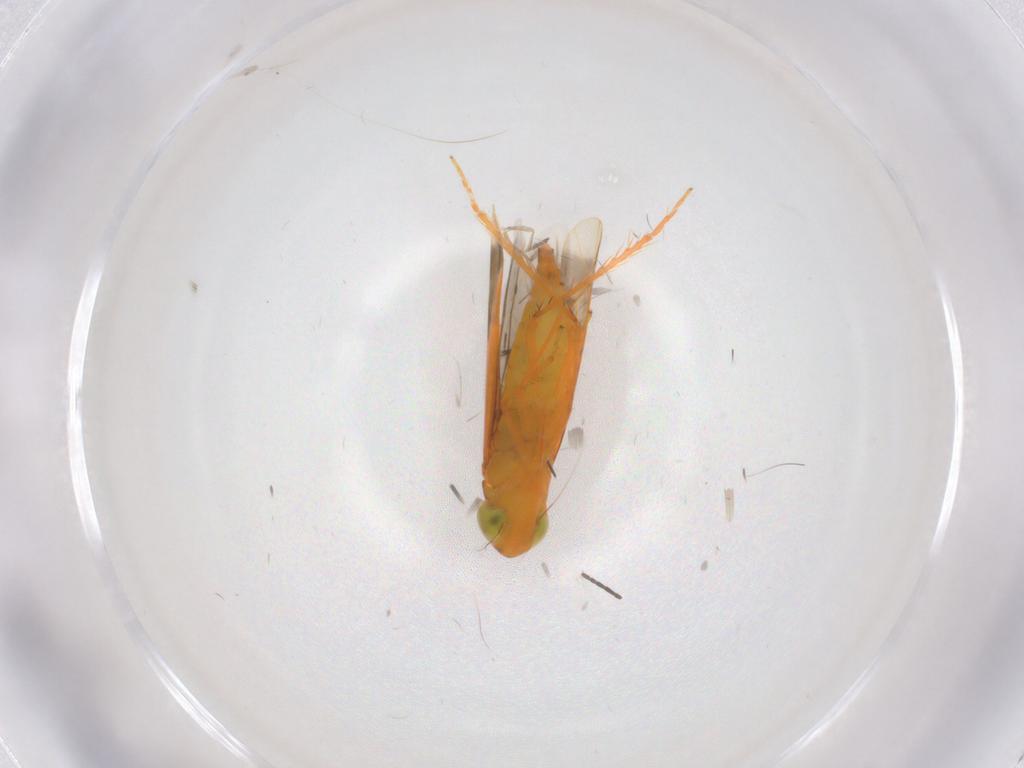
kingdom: Animalia
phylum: Arthropoda
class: Insecta
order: Hemiptera
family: Cicadellidae
